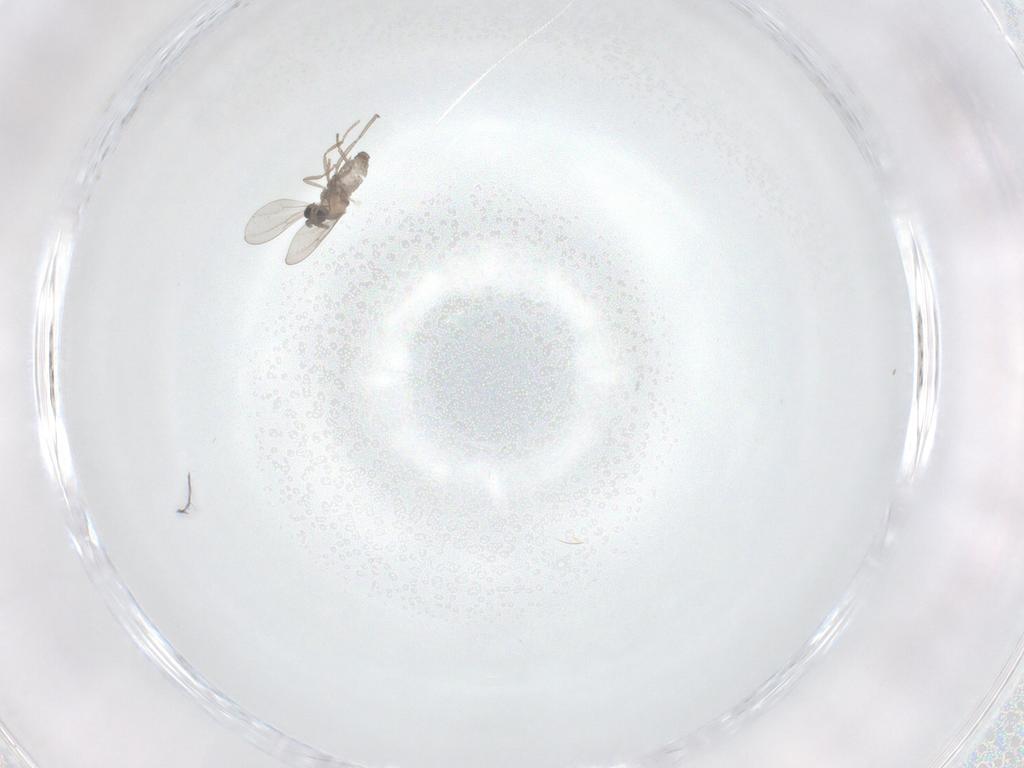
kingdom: Animalia
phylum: Arthropoda
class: Insecta
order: Diptera
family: Cecidomyiidae
